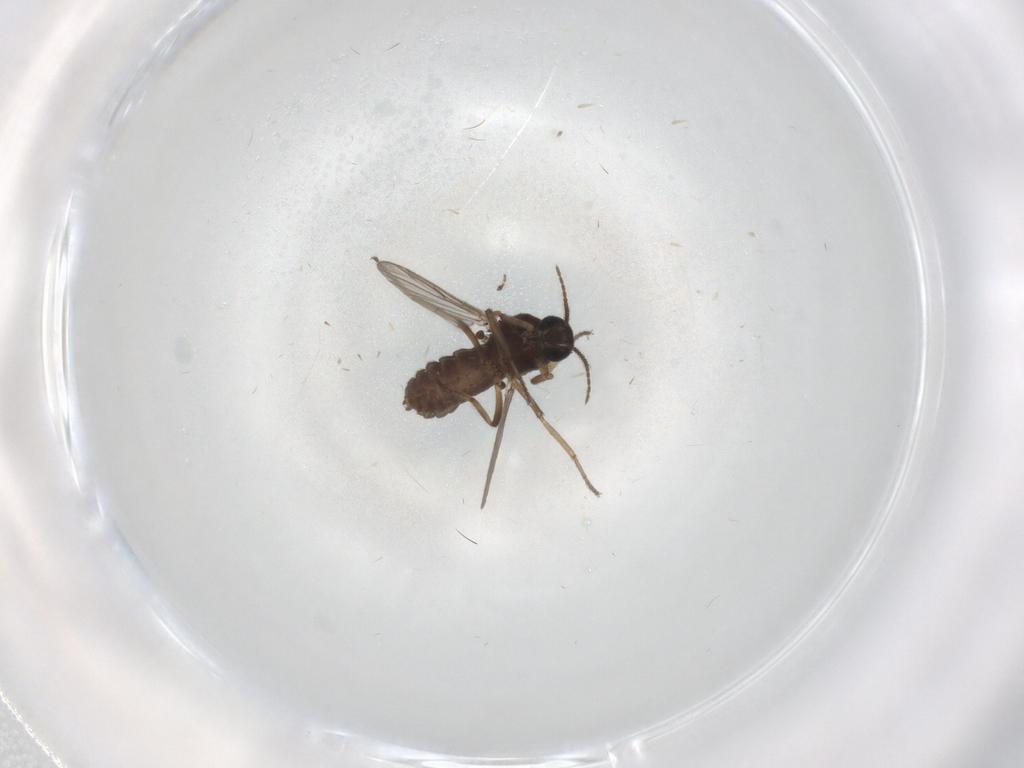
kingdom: Animalia
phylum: Arthropoda
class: Insecta
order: Diptera
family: Ceratopogonidae
